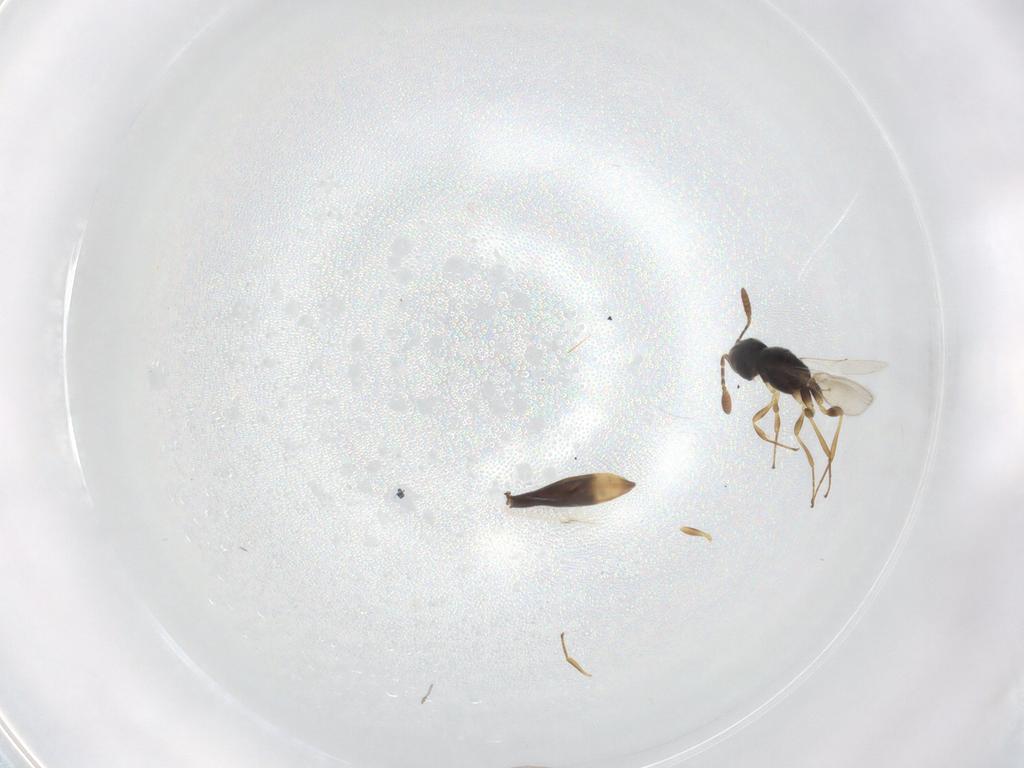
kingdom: Animalia
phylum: Arthropoda
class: Insecta
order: Hymenoptera
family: Scelionidae
